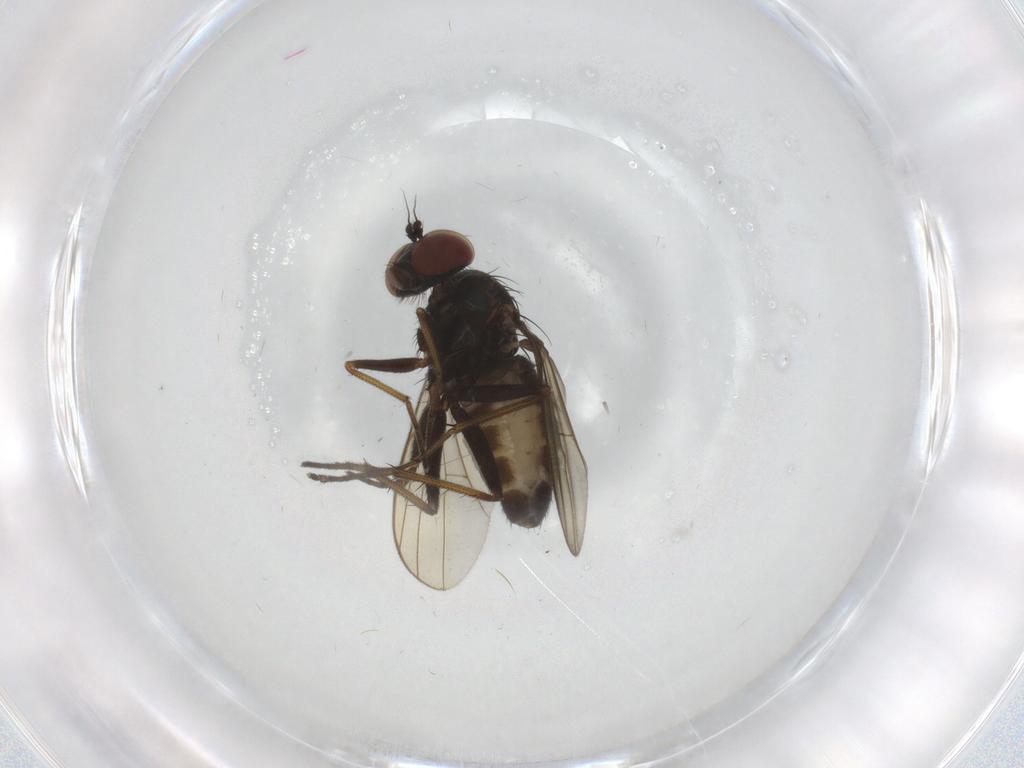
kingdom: Animalia
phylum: Arthropoda
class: Insecta
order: Diptera
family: Dolichopodidae
